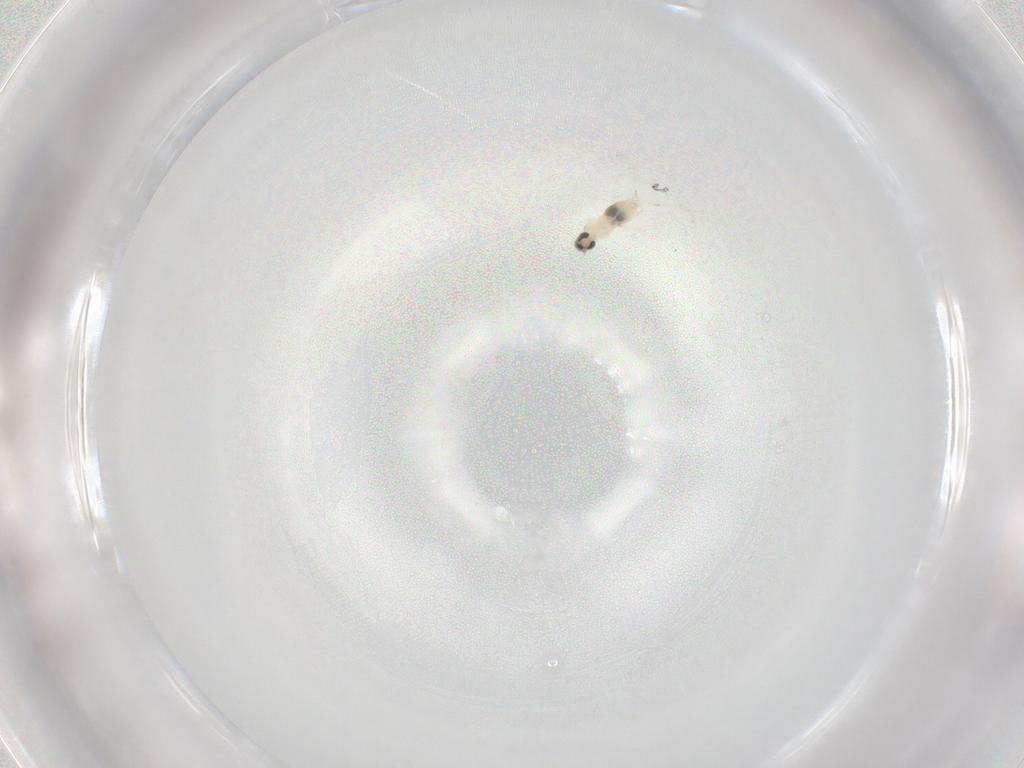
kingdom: Animalia
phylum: Arthropoda
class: Insecta
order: Diptera
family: Cecidomyiidae
